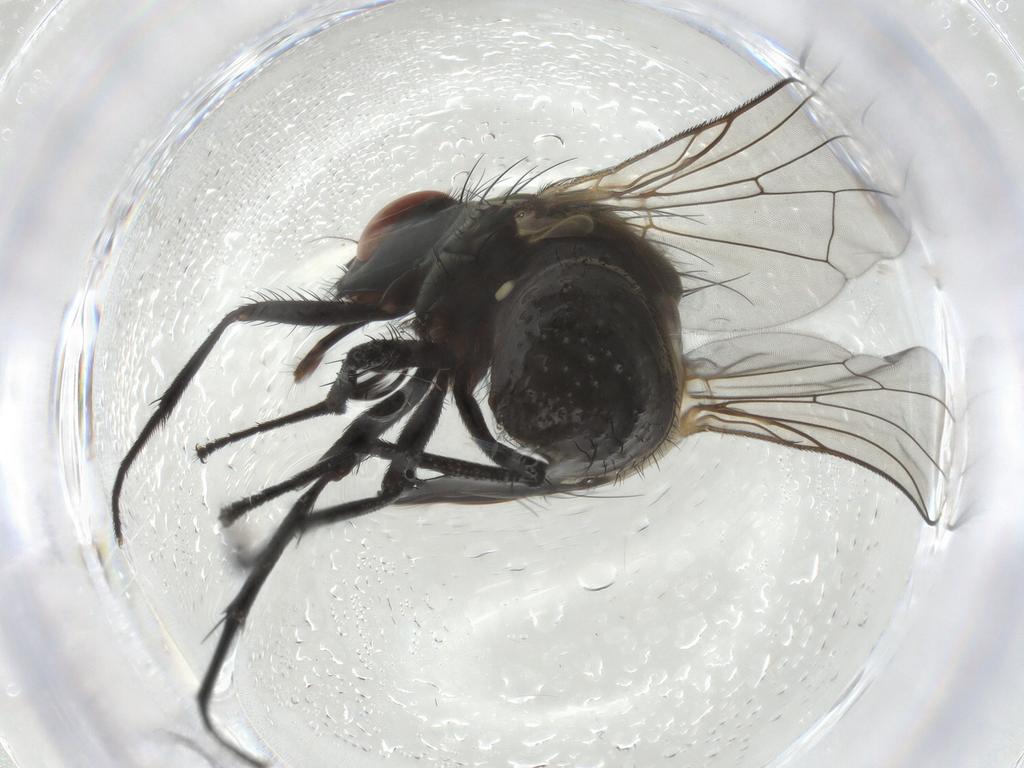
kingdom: Animalia
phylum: Arthropoda
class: Insecta
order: Diptera
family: Muscidae
